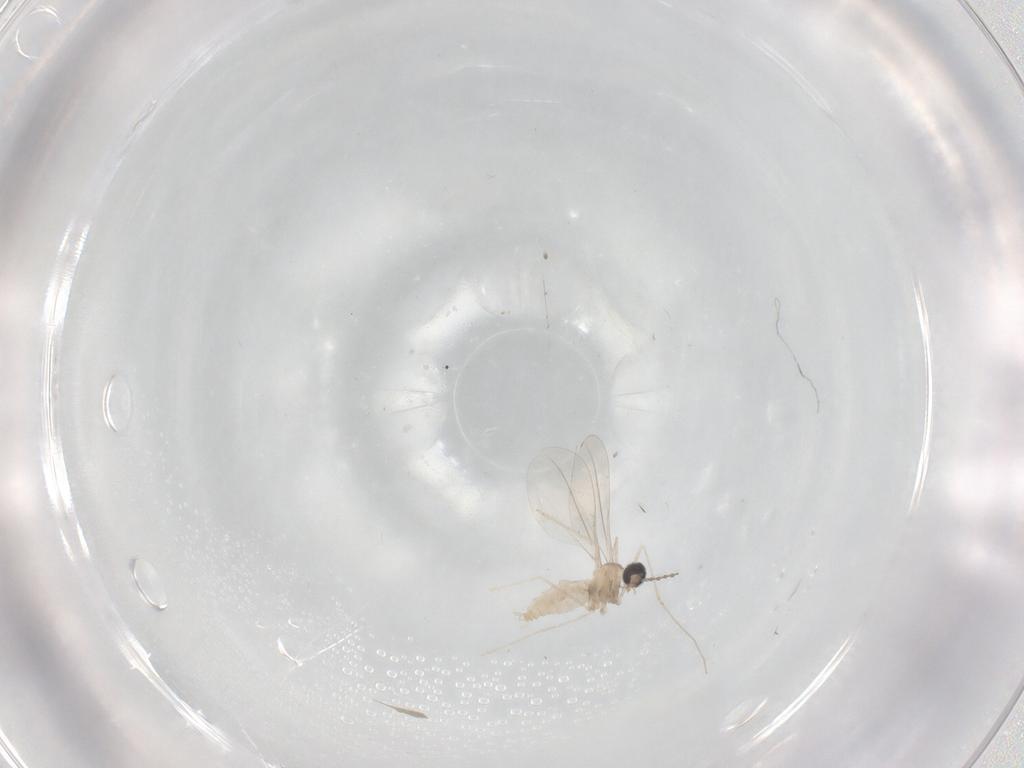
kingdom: Animalia
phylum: Arthropoda
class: Insecta
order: Diptera
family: Cecidomyiidae
